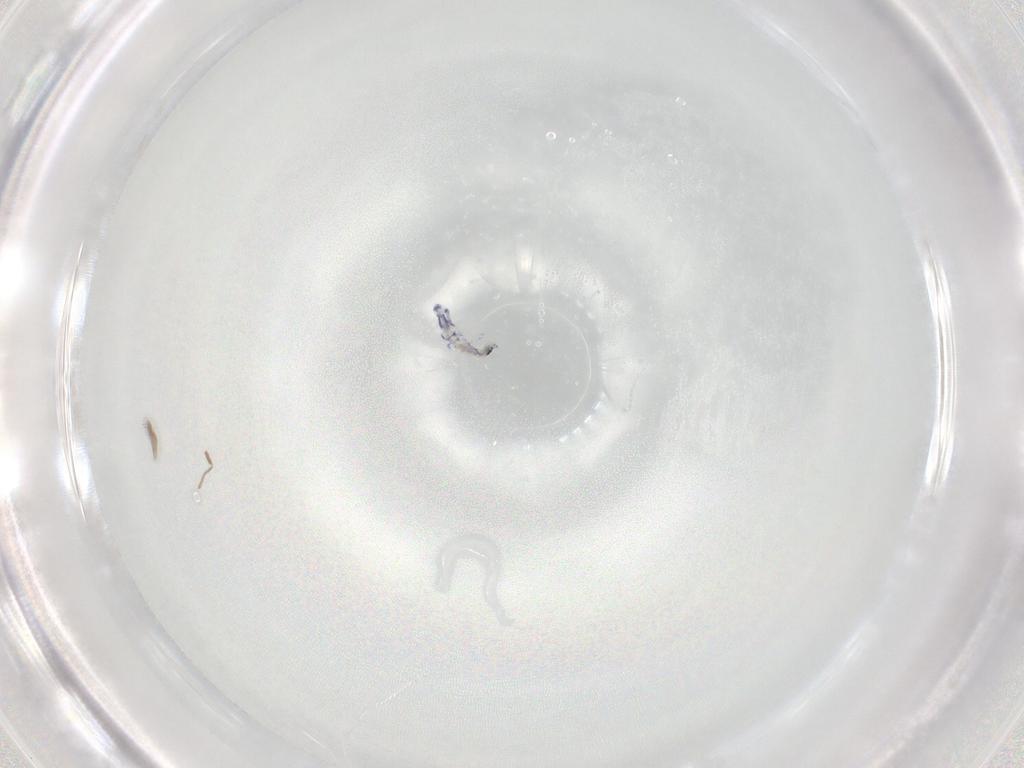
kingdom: Animalia
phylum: Arthropoda
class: Collembola
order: Entomobryomorpha
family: Entomobryidae
